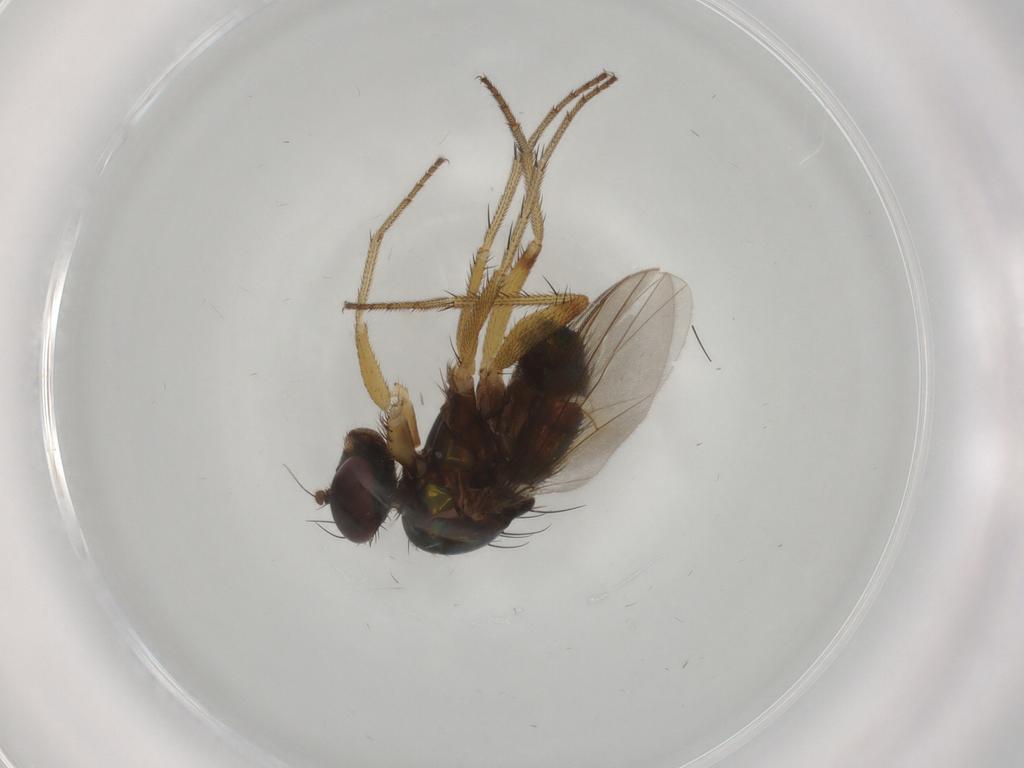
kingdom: Animalia
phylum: Arthropoda
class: Insecta
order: Diptera
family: Dolichopodidae
